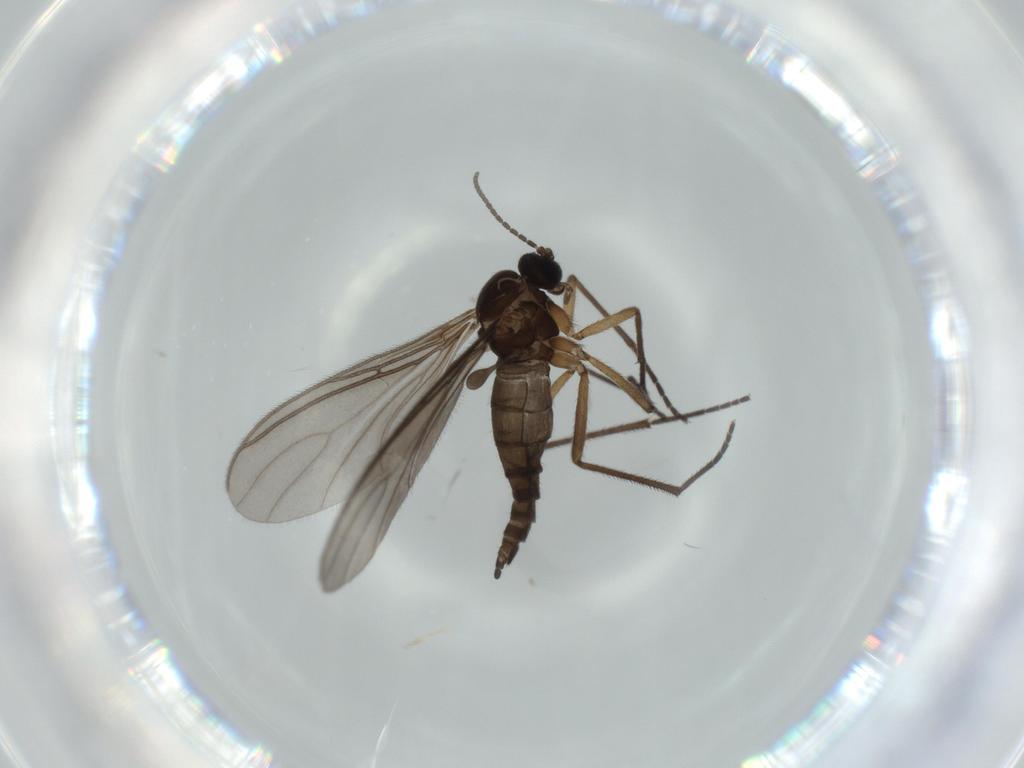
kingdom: Animalia
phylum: Arthropoda
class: Insecta
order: Diptera
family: Sciaridae
